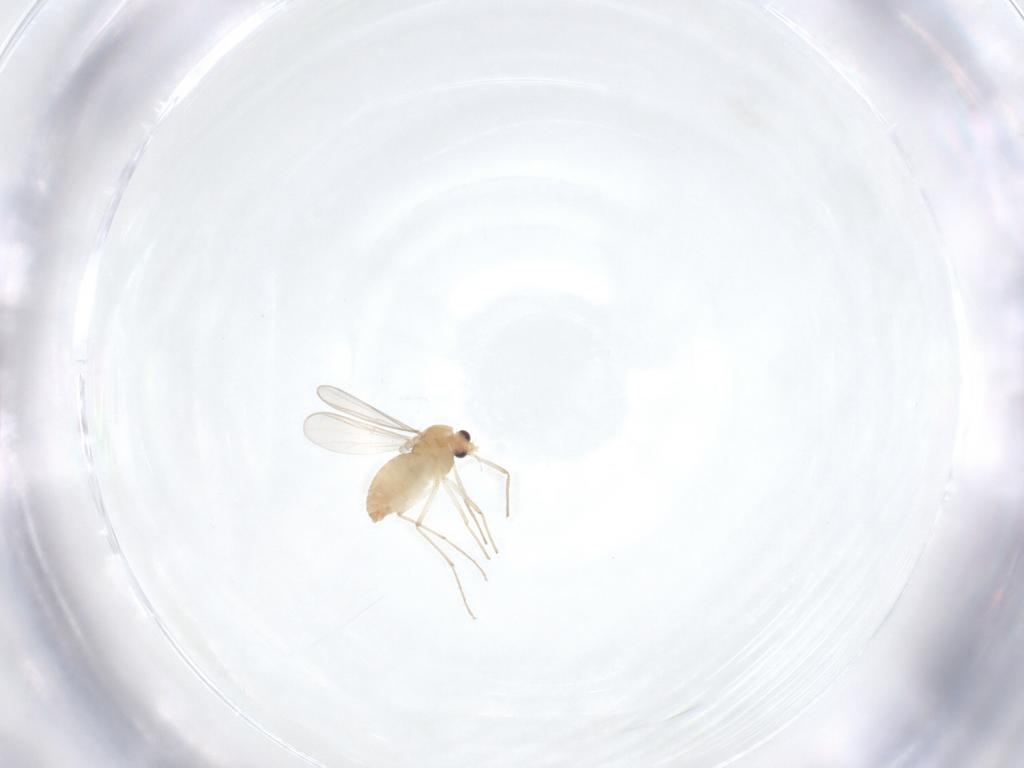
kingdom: Animalia
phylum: Arthropoda
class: Insecta
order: Diptera
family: Chironomidae
